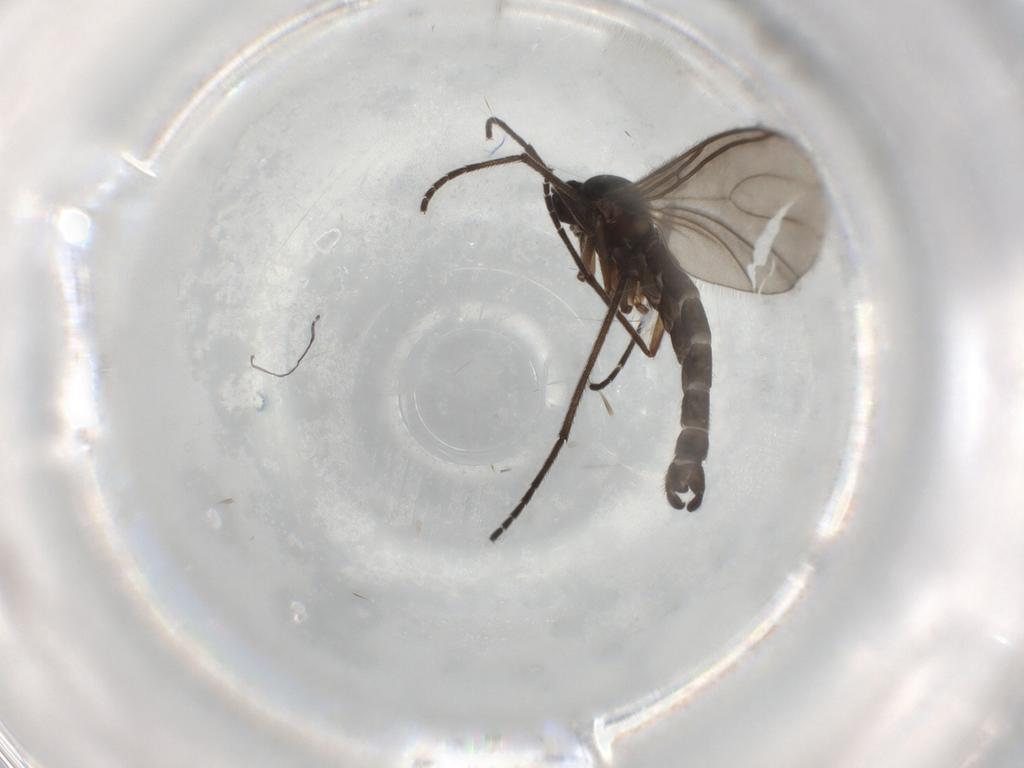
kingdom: Animalia
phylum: Arthropoda
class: Insecta
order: Diptera
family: Sciaridae
